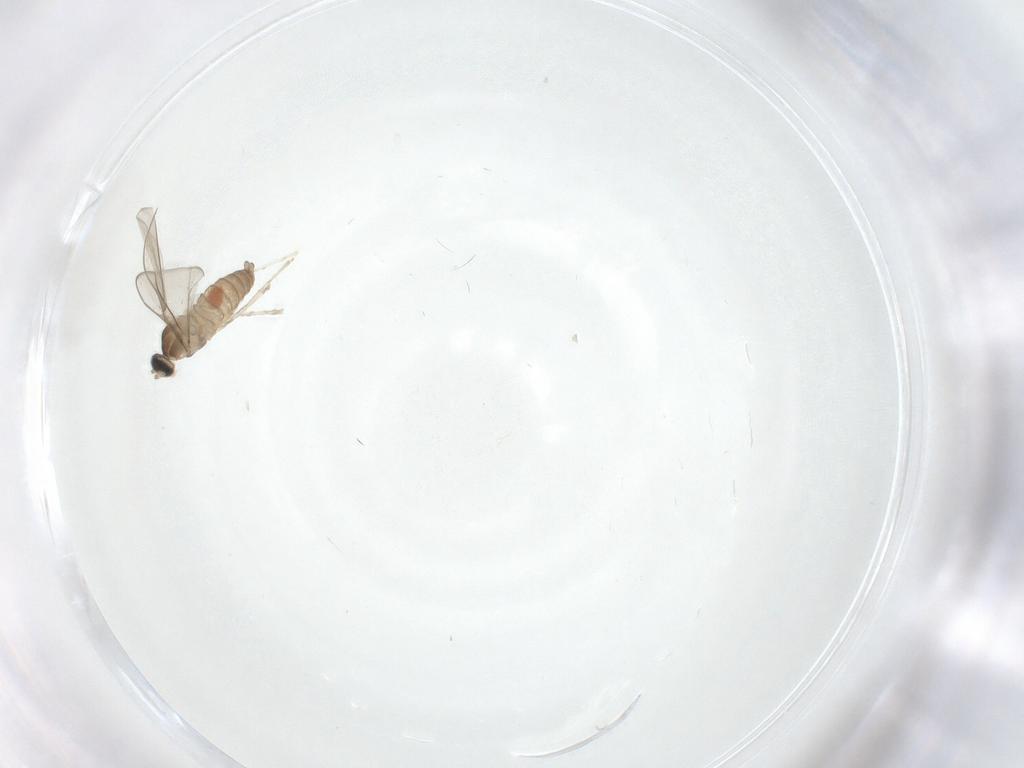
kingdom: Animalia
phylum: Arthropoda
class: Insecta
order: Diptera
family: Cecidomyiidae
